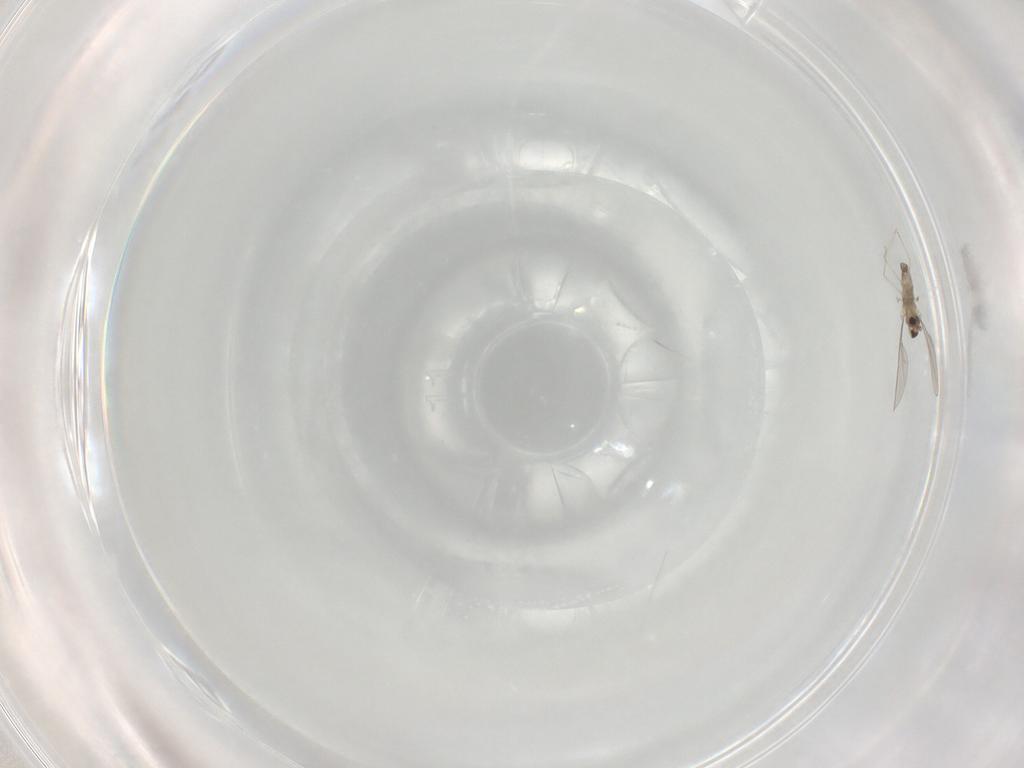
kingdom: Animalia
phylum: Arthropoda
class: Insecta
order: Diptera
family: Cecidomyiidae
